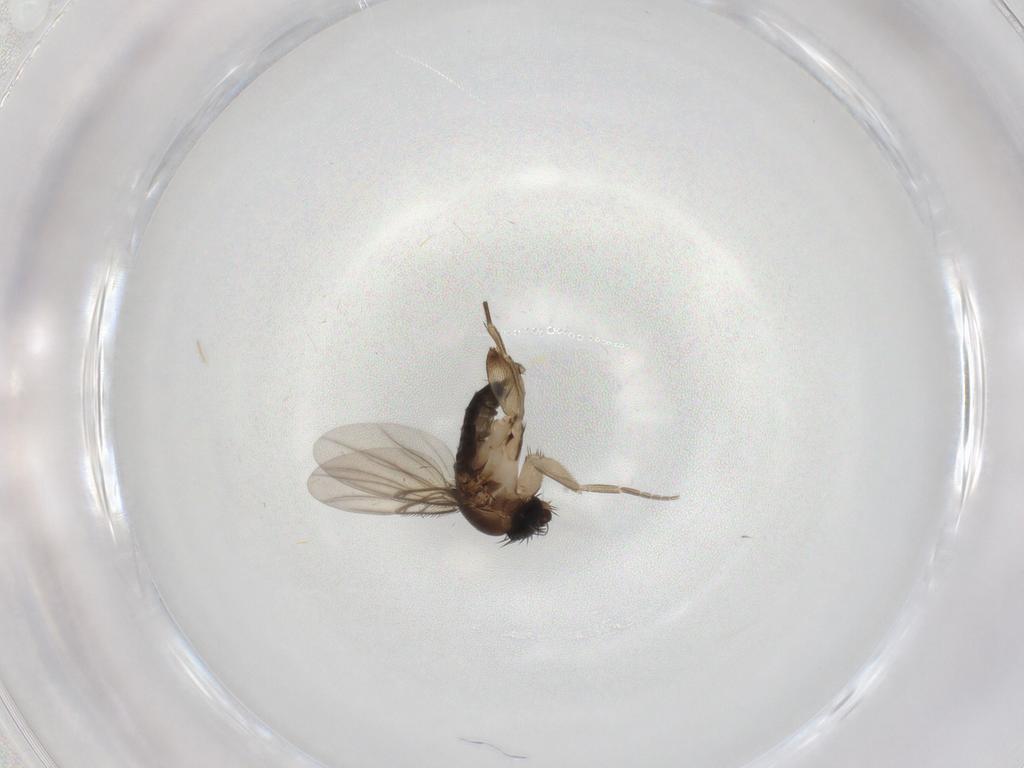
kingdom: Animalia
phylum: Arthropoda
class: Insecta
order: Diptera
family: Phoridae
